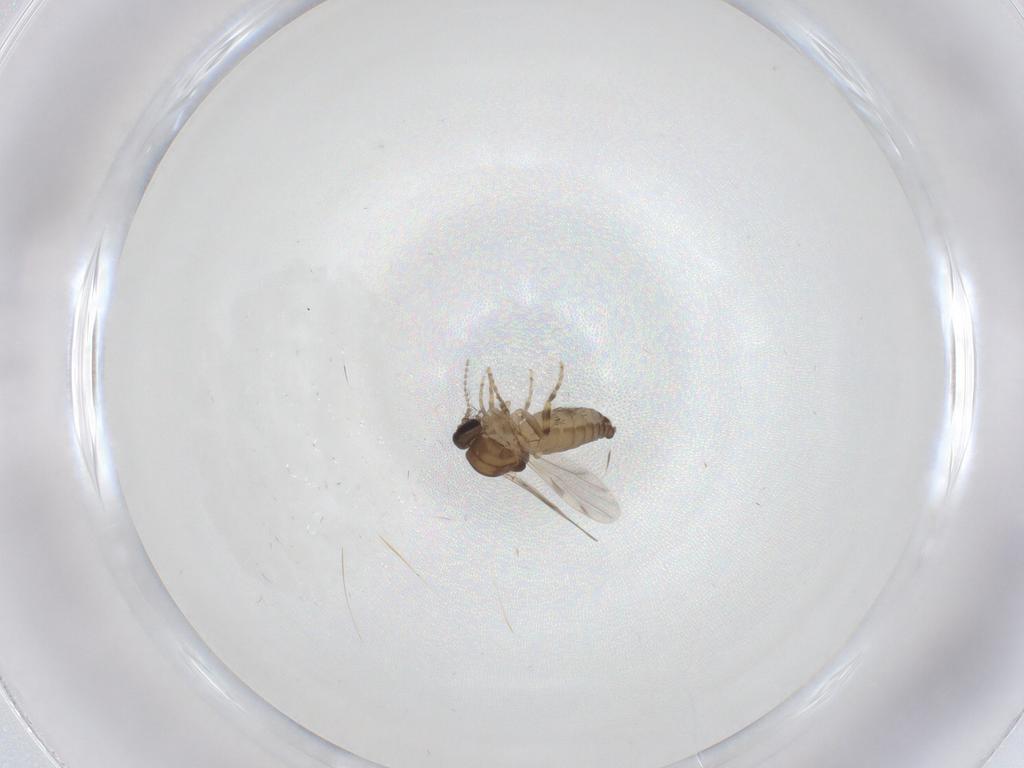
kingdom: Animalia
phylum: Arthropoda
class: Insecta
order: Diptera
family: Ceratopogonidae
